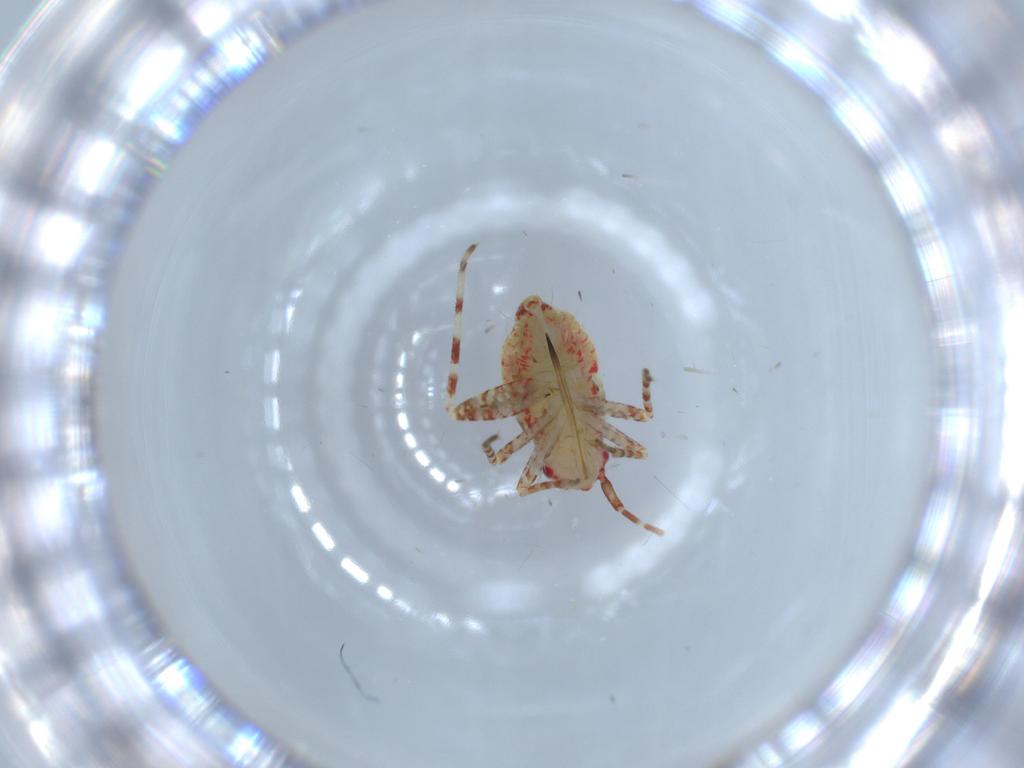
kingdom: Animalia
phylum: Arthropoda
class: Insecta
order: Hemiptera
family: Miridae
